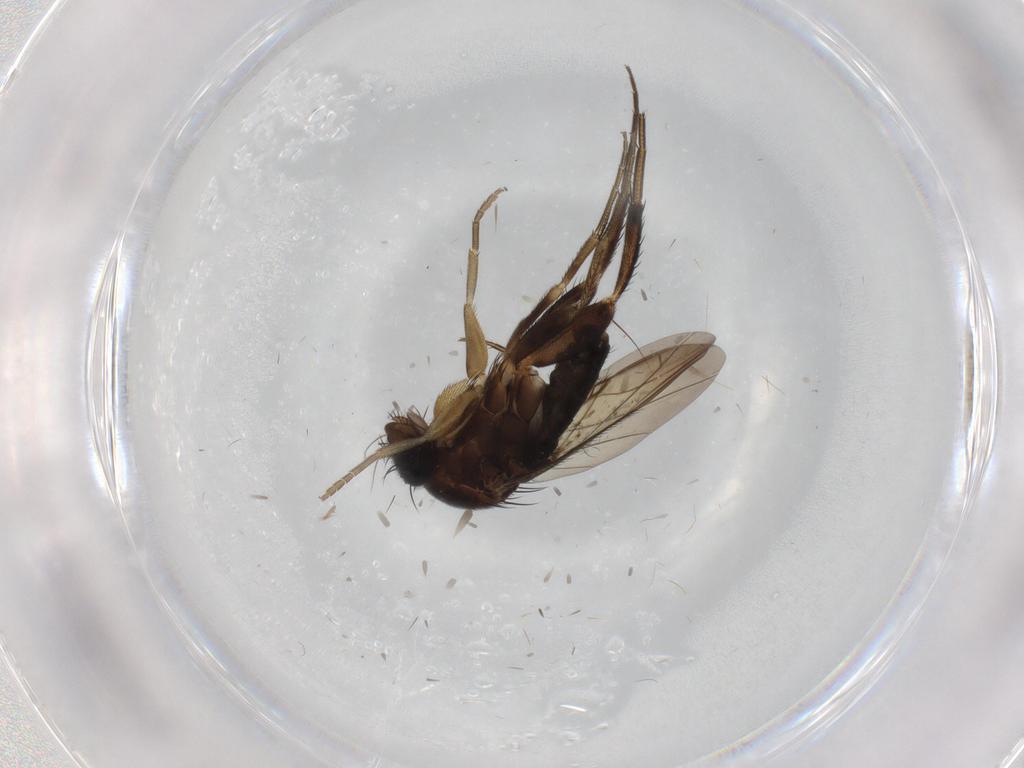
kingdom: Animalia
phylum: Arthropoda
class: Insecta
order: Diptera
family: Phoridae
